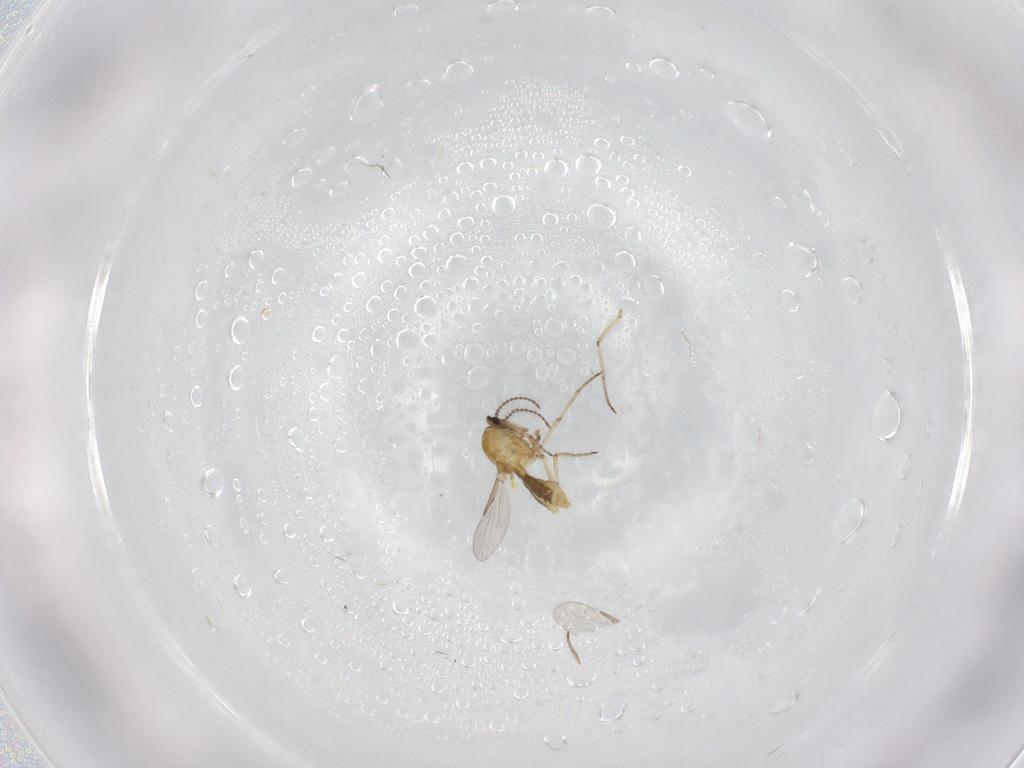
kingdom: Animalia
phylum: Arthropoda
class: Insecta
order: Diptera
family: Ceratopogonidae
